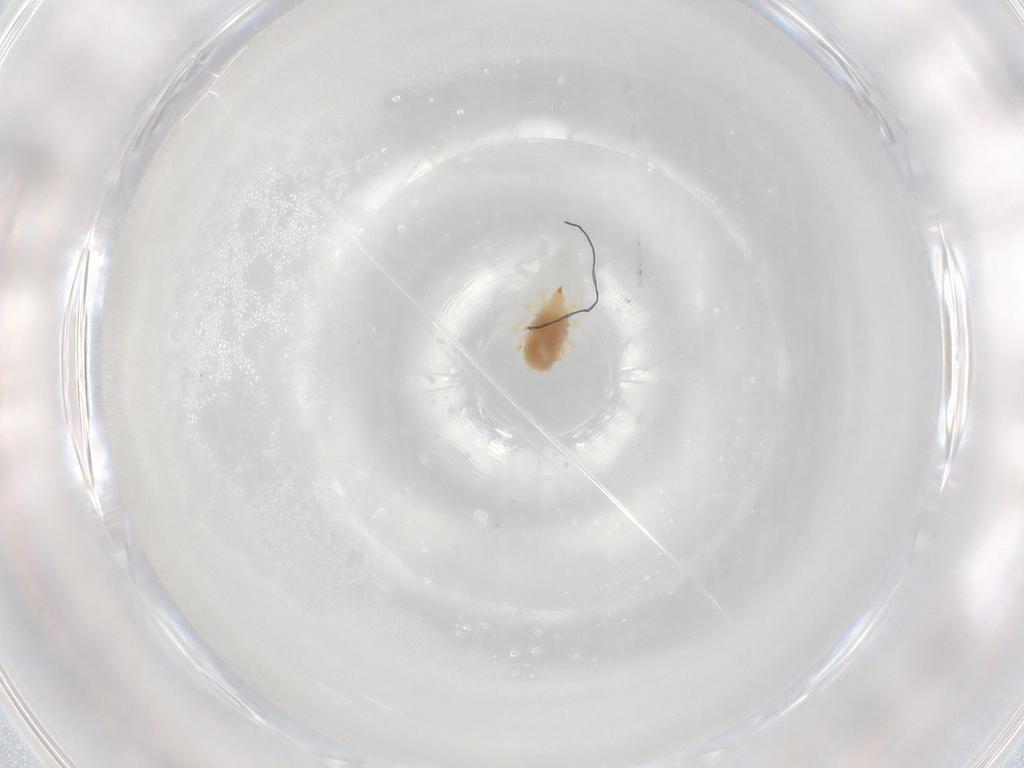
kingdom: Animalia
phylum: Arthropoda
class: Arachnida
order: Trombidiformes
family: Bdellidae
